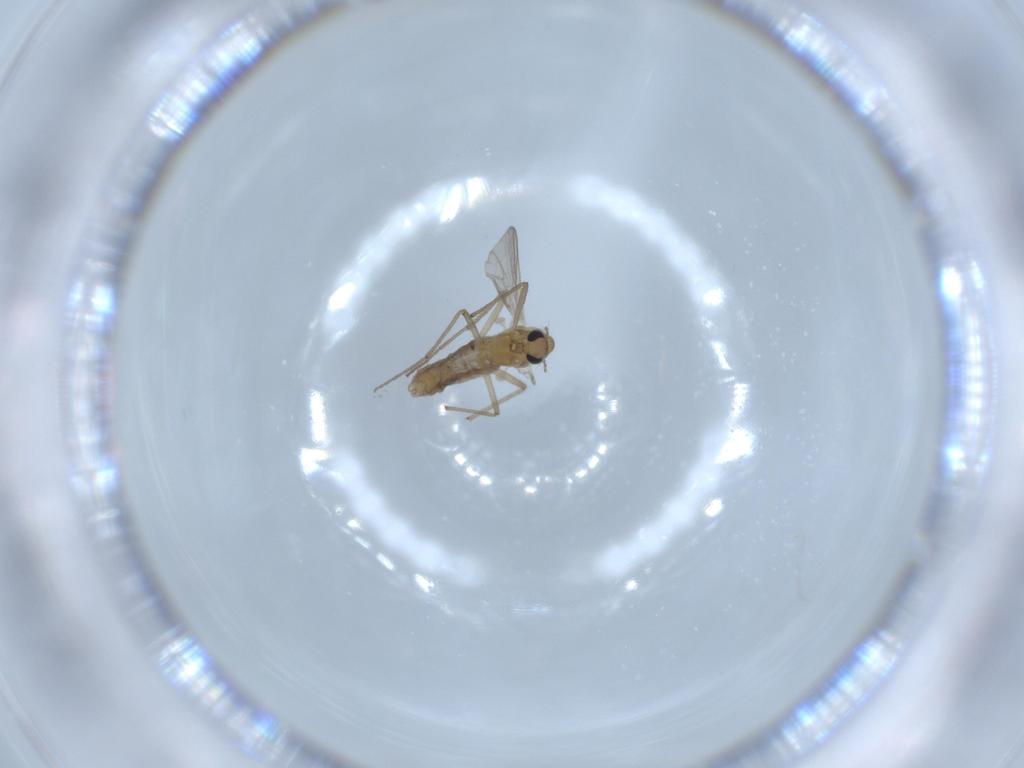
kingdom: Animalia
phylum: Arthropoda
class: Insecta
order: Diptera
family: Chironomidae
